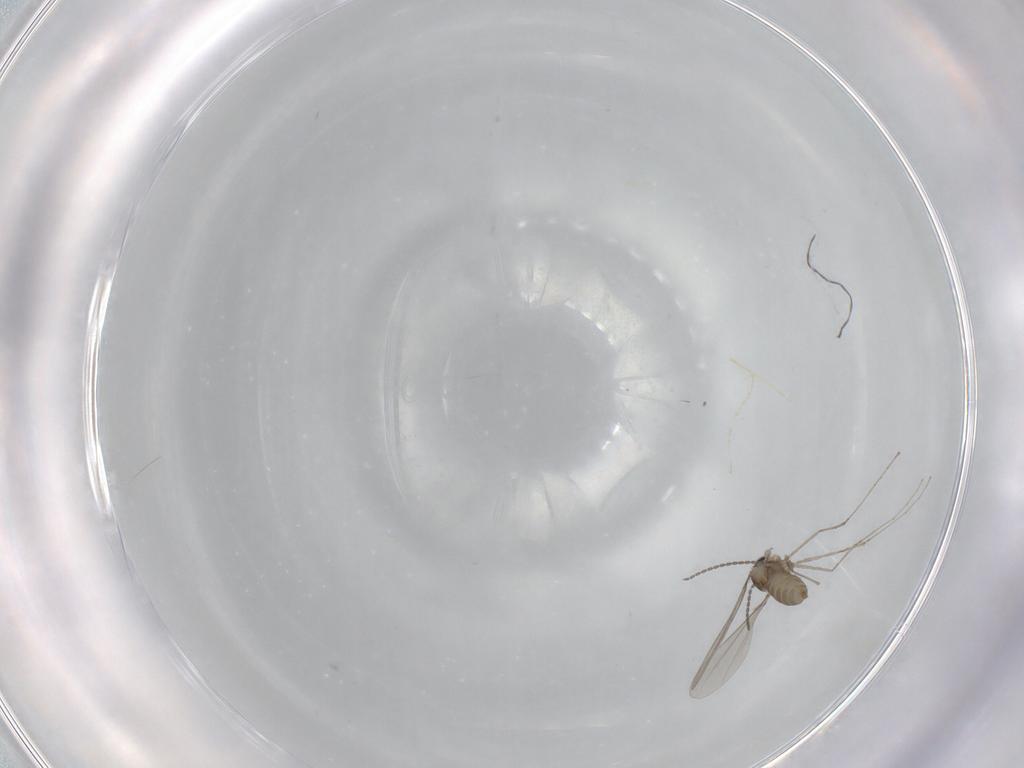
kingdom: Animalia
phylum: Arthropoda
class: Insecta
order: Diptera
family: Cecidomyiidae
